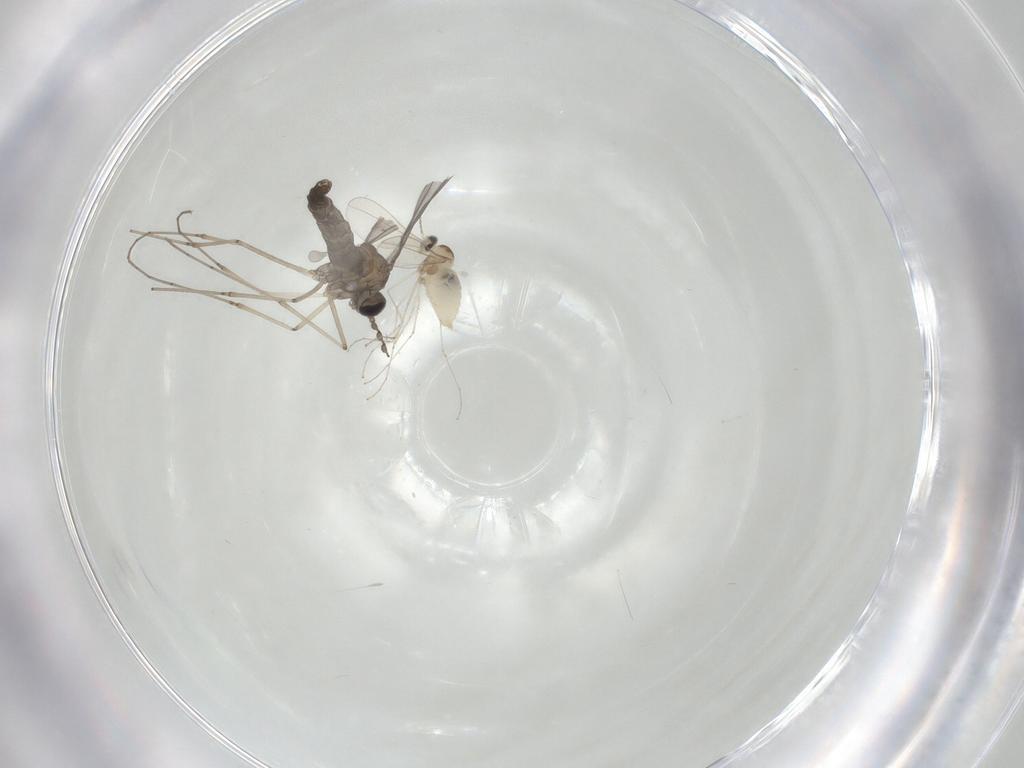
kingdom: Animalia
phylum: Arthropoda
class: Insecta
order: Diptera
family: Cecidomyiidae
